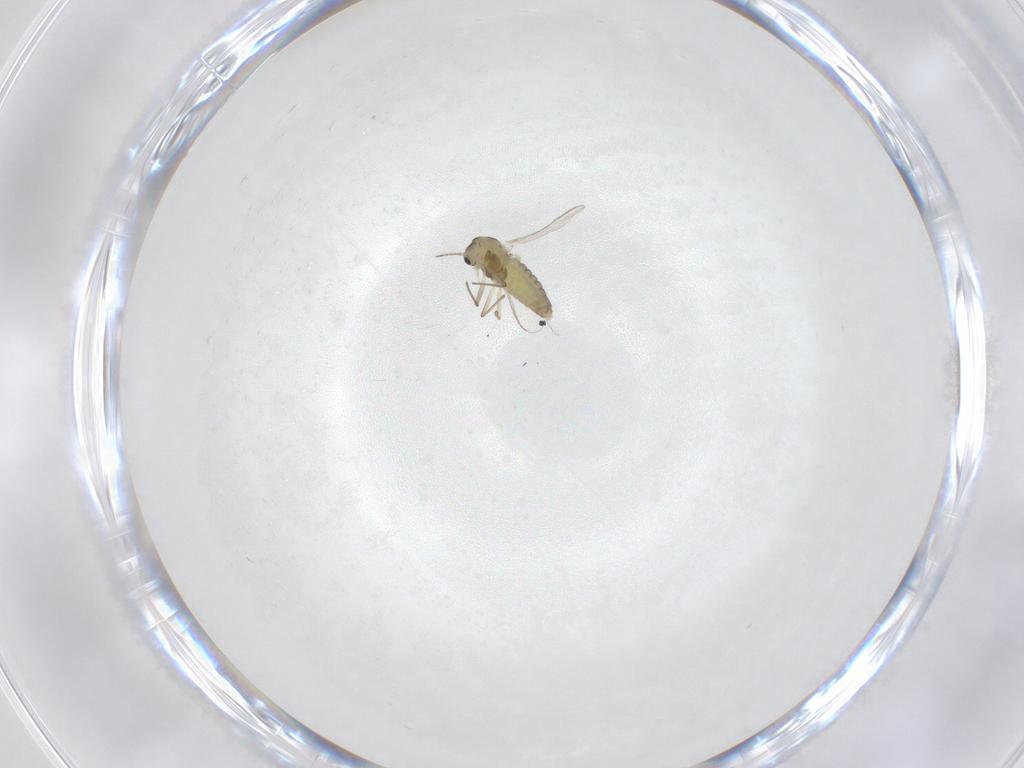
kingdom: Animalia
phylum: Arthropoda
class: Insecta
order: Diptera
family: Chironomidae
